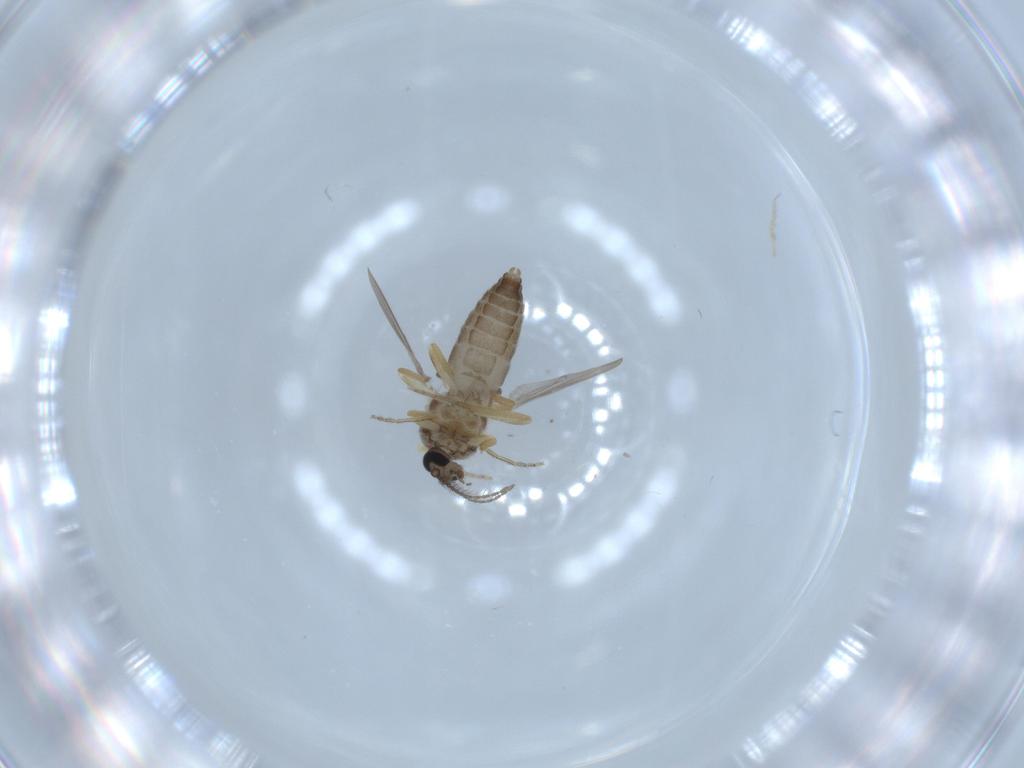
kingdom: Animalia
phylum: Arthropoda
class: Insecta
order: Diptera
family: Ceratopogonidae
